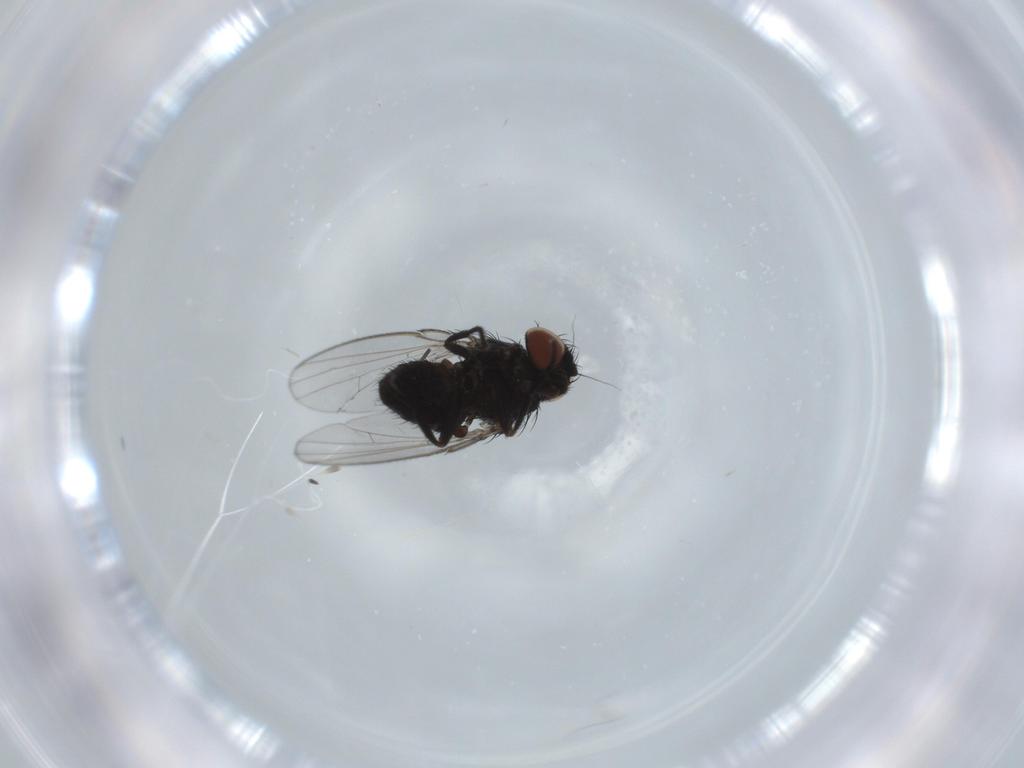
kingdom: Animalia
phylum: Arthropoda
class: Insecta
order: Diptera
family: Milichiidae
